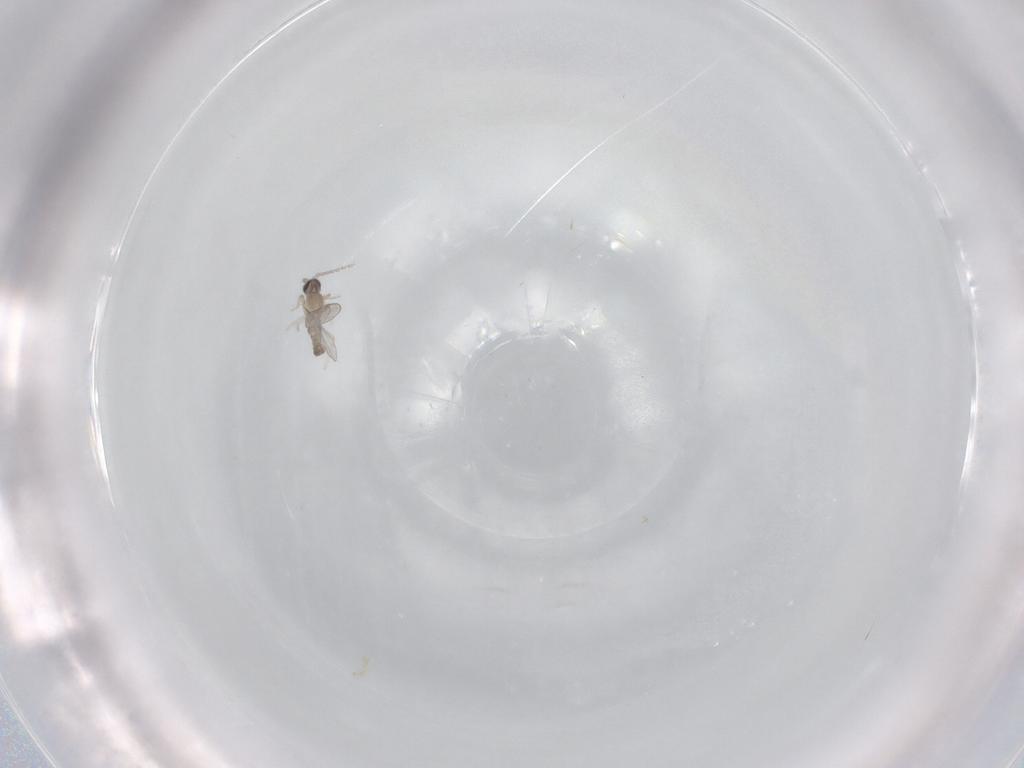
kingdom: Animalia
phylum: Arthropoda
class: Insecta
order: Diptera
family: Cecidomyiidae
